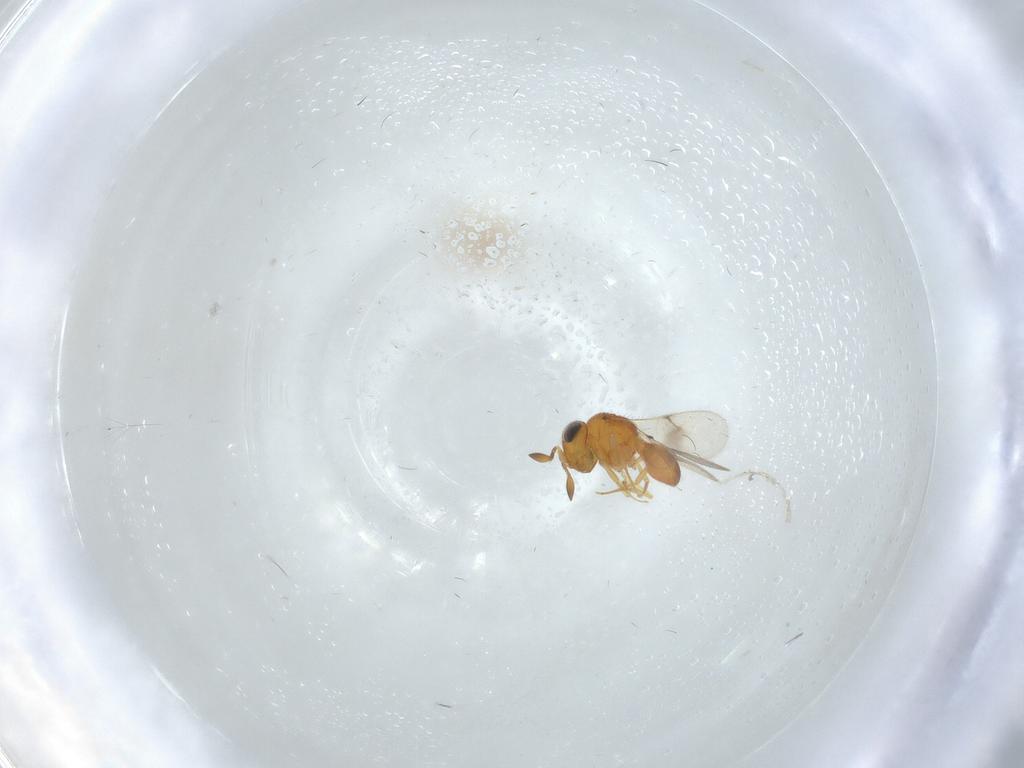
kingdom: Animalia
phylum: Arthropoda
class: Insecta
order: Hymenoptera
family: Scelionidae
